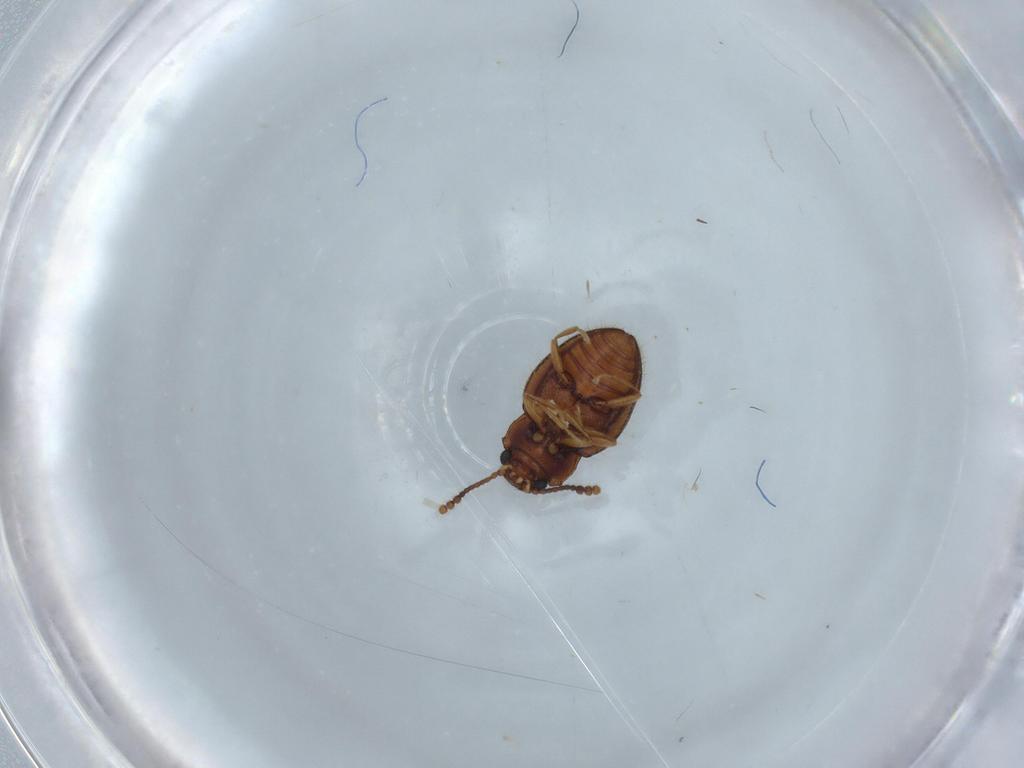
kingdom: Animalia
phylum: Arthropoda
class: Insecta
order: Coleoptera
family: Erotylidae
